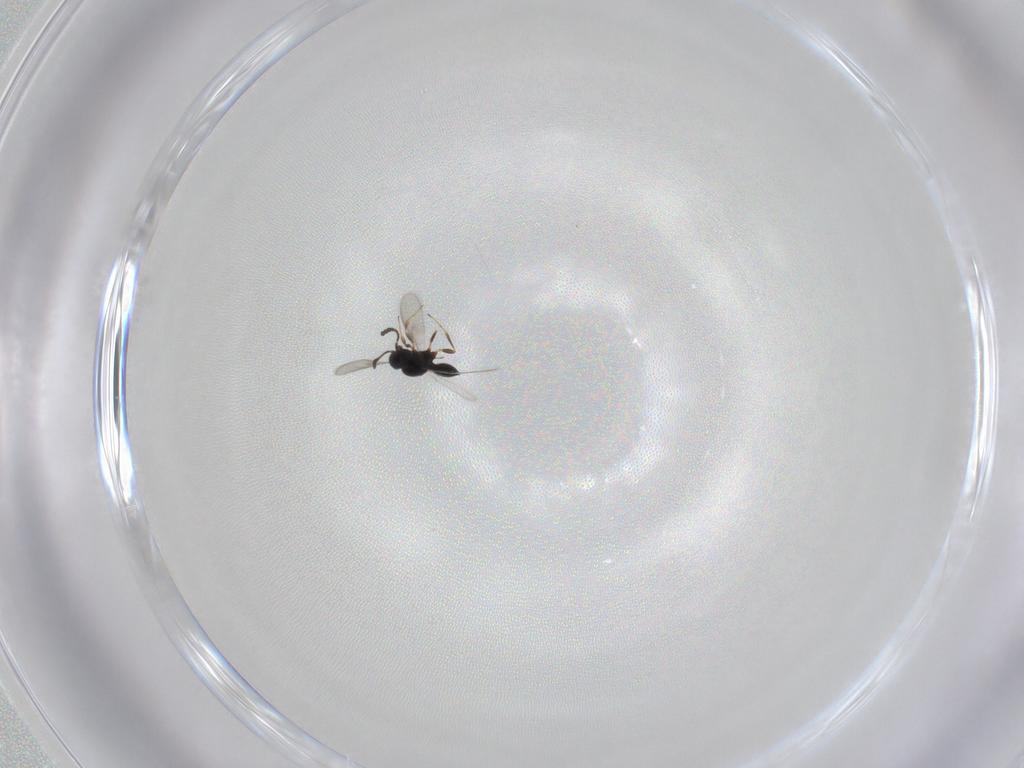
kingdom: Animalia
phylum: Arthropoda
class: Insecta
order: Hymenoptera
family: Scelionidae
